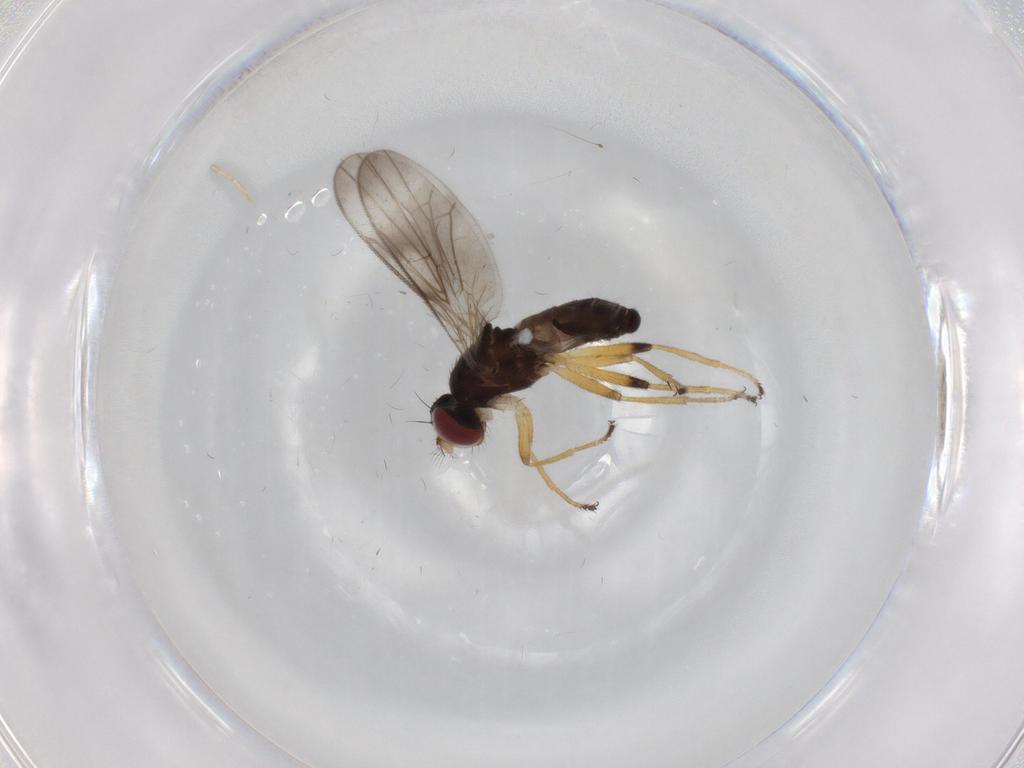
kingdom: Animalia
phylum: Arthropoda
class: Insecta
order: Diptera
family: Periscelididae
